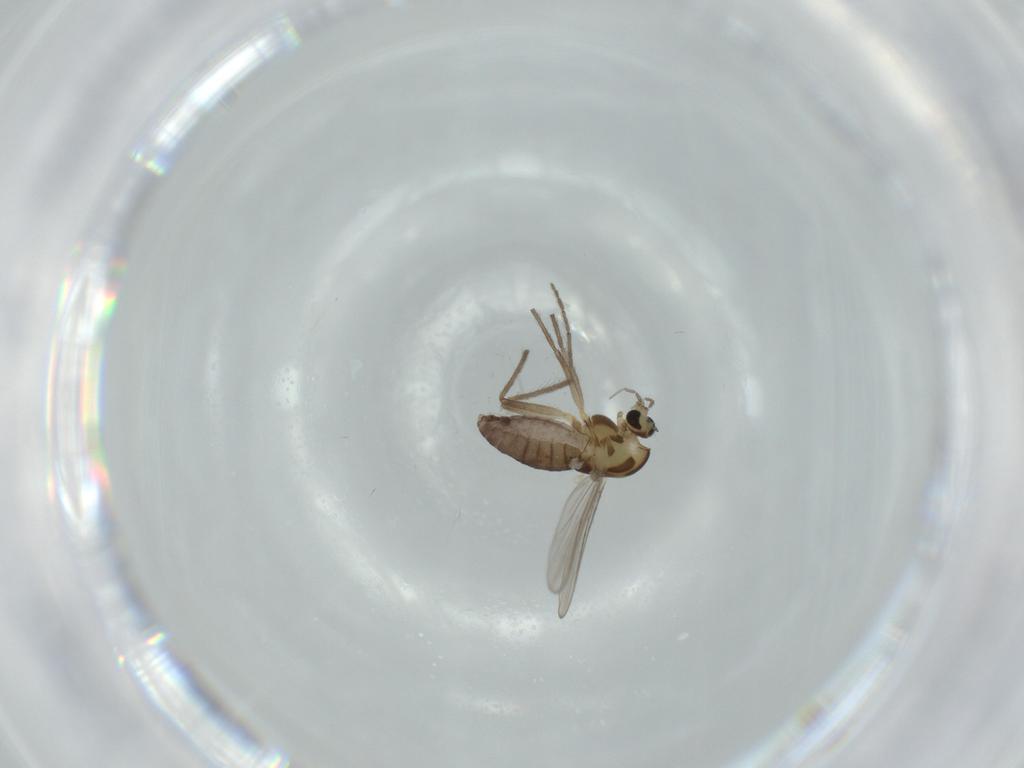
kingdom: Animalia
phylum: Arthropoda
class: Insecta
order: Diptera
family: Chironomidae
